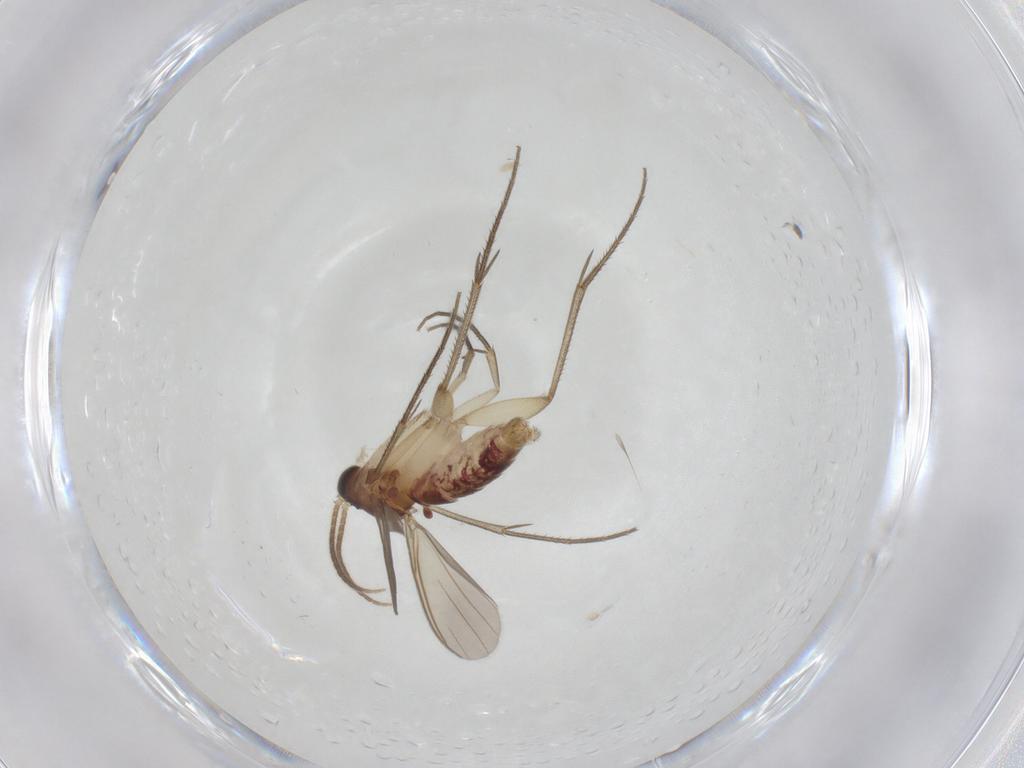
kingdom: Animalia
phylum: Arthropoda
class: Insecta
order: Diptera
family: Mycetophilidae
